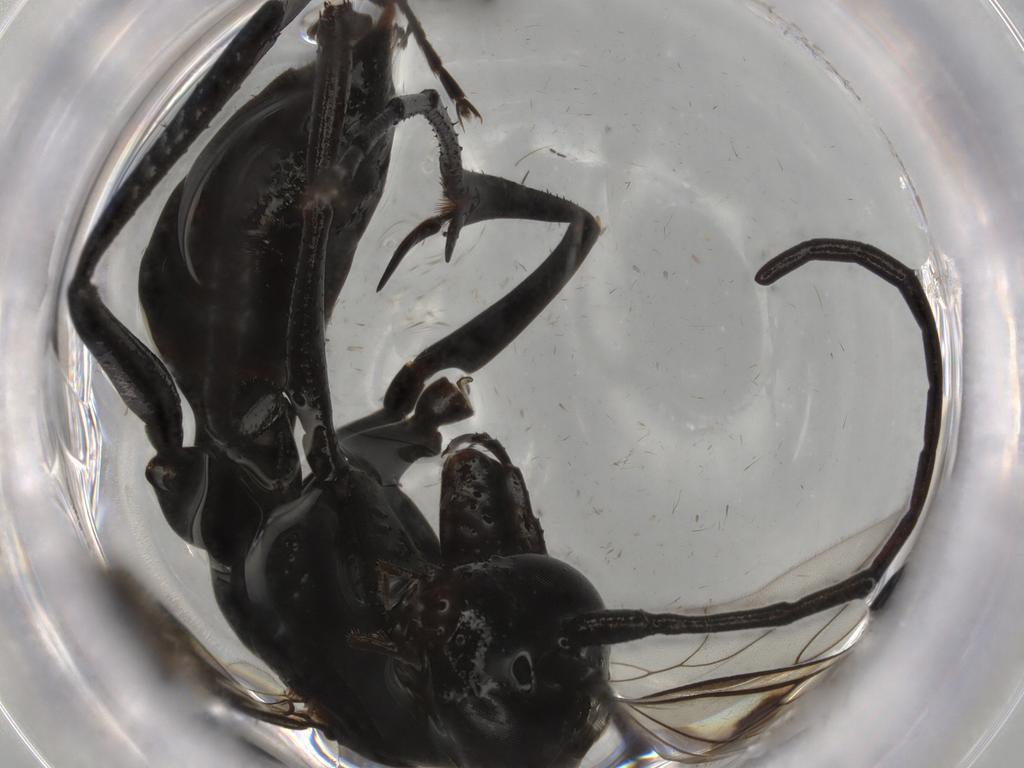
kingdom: Animalia
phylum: Arthropoda
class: Insecta
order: Hymenoptera
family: Pompilidae
